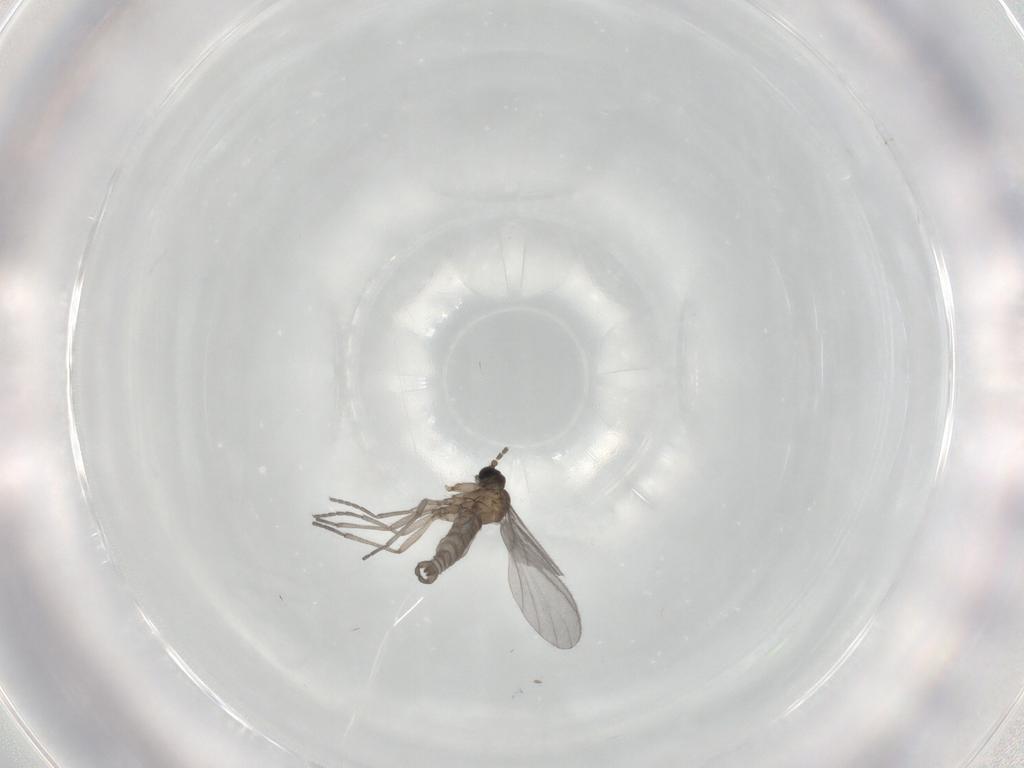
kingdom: Animalia
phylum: Arthropoda
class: Insecta
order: Diptera
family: Sciaridae
